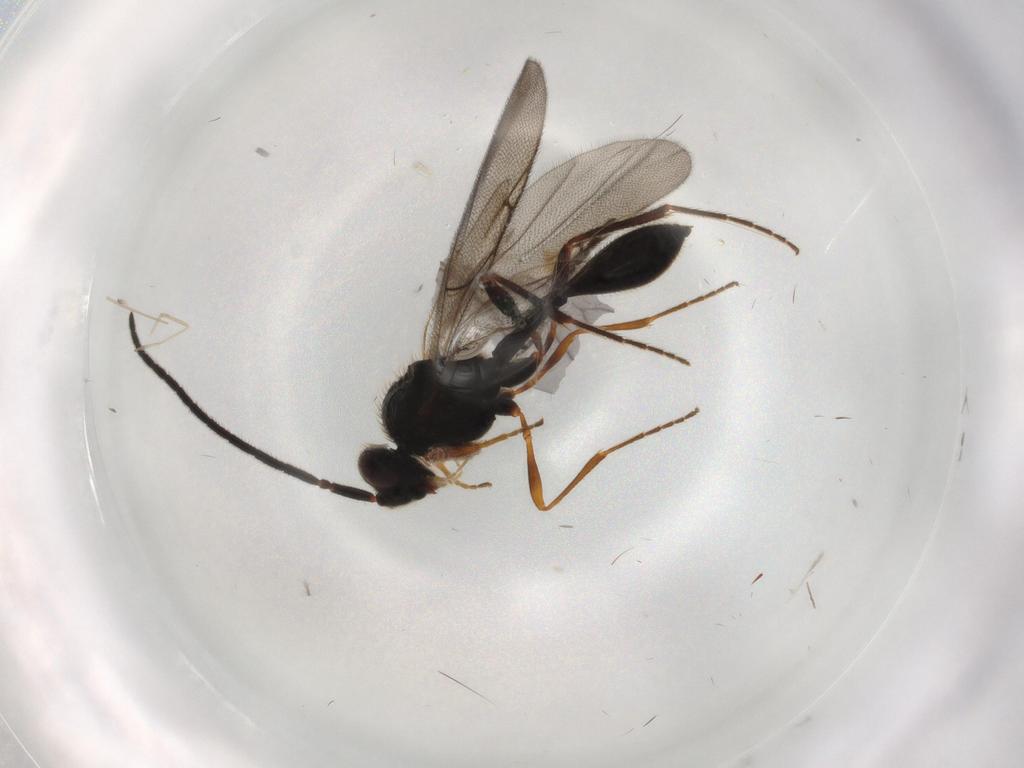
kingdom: Animalia
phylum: Arthropoda
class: Insecta
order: Hymenoptera
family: Diapriidae
